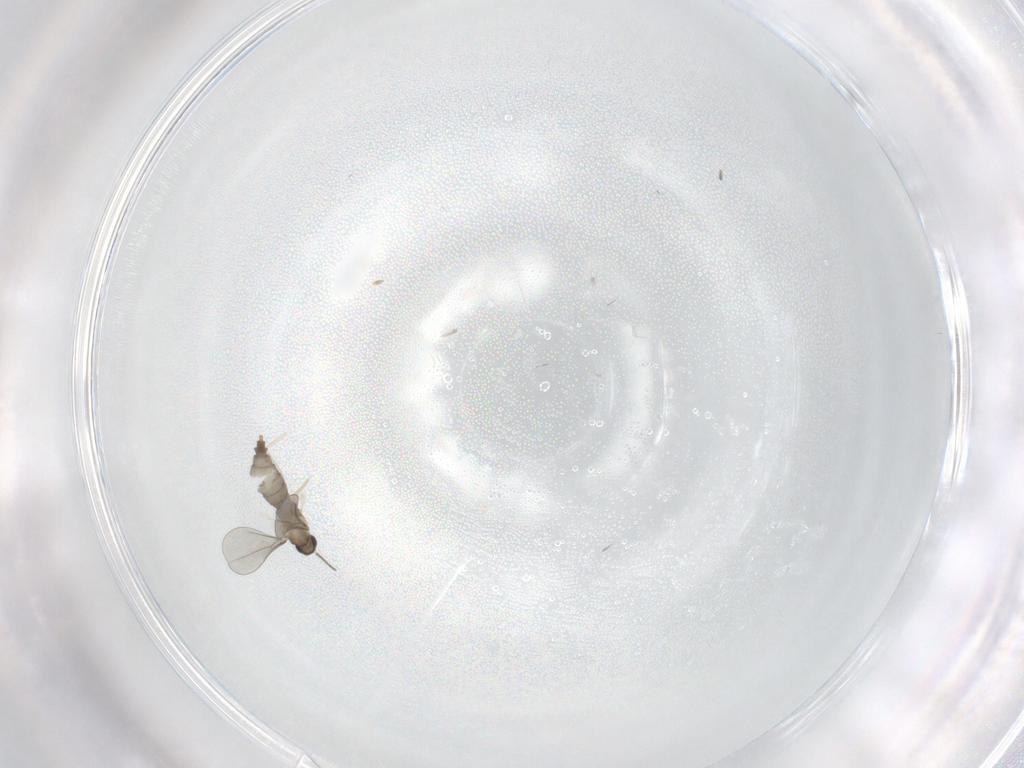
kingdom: Animalia
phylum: Arthropoda
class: Insecta
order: Diptera
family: Cecidomyiidae
